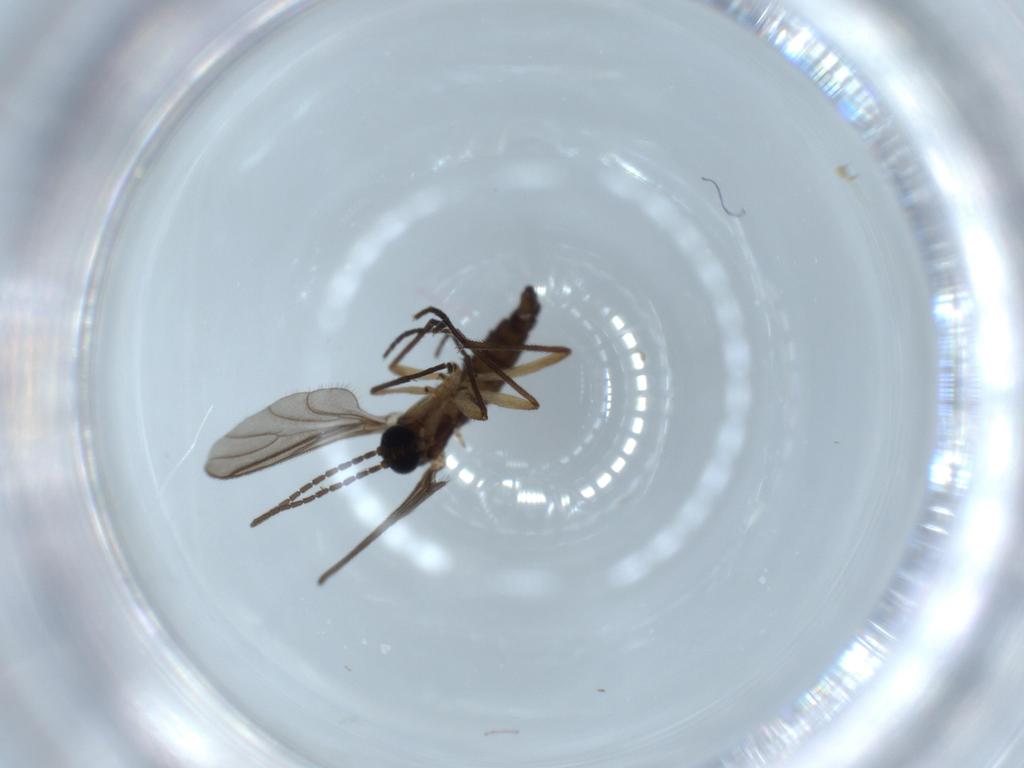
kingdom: Animalia
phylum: Arthropoda
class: Insecta
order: Diptera
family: Sciaridae
